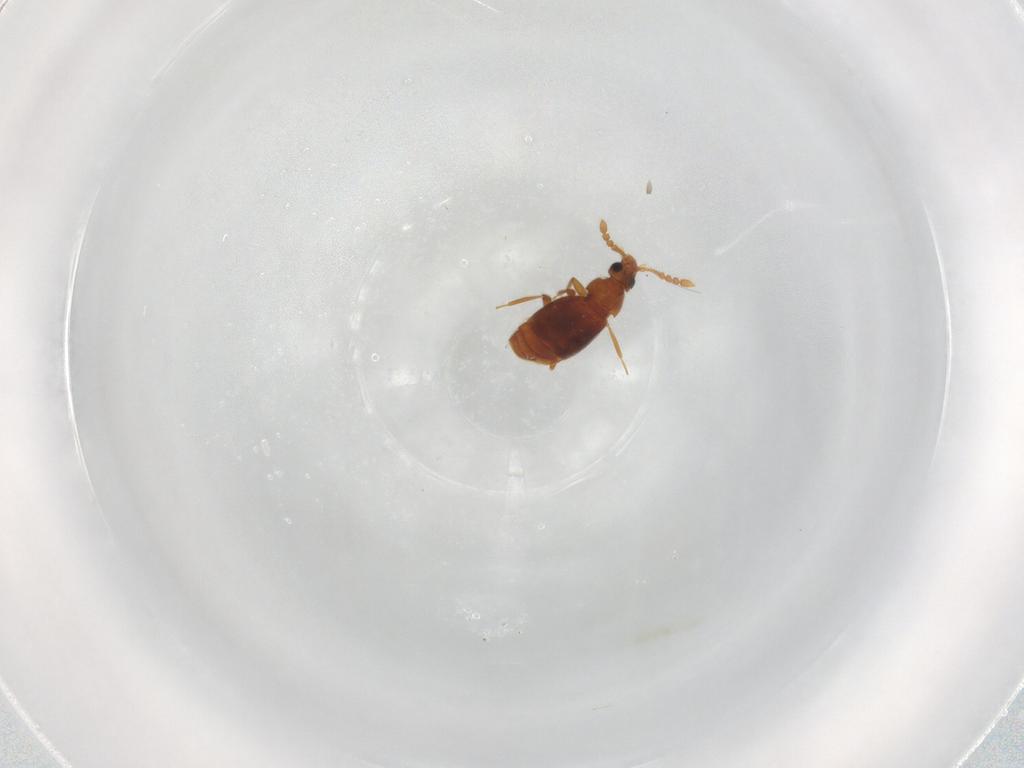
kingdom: Animalia
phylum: Arthropoda
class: Insecta
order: Coleoptera
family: Staphylinidae
